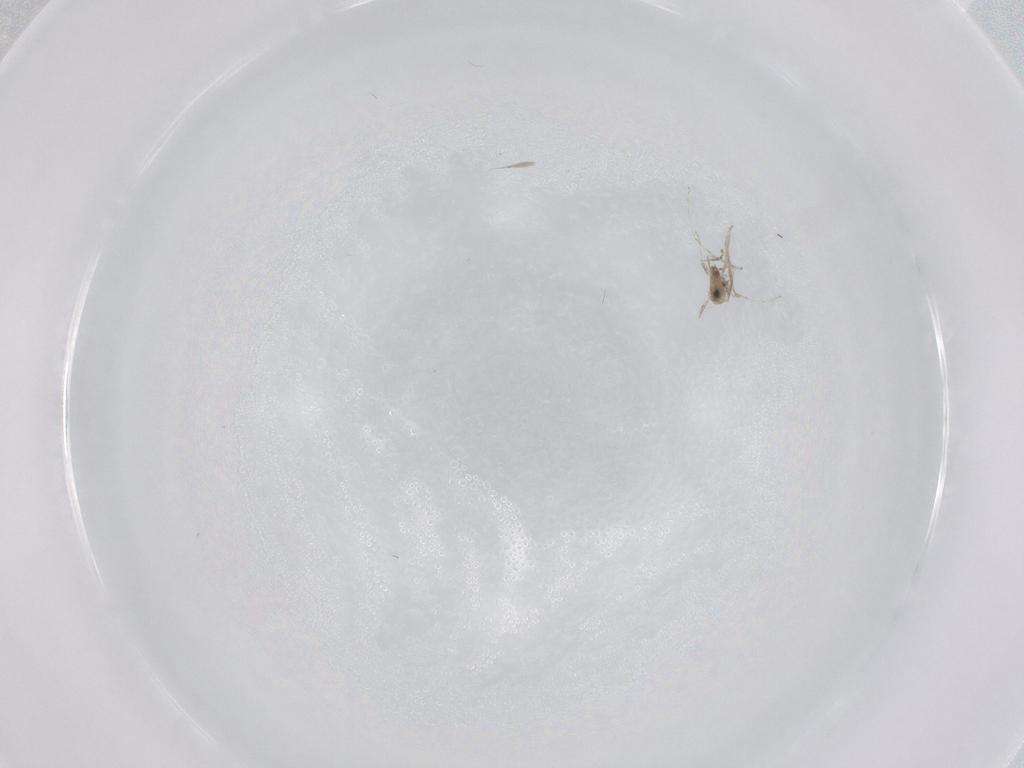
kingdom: Animalia
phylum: Arthropoda
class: Insecta
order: Diptera
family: Cecidomyiidae
